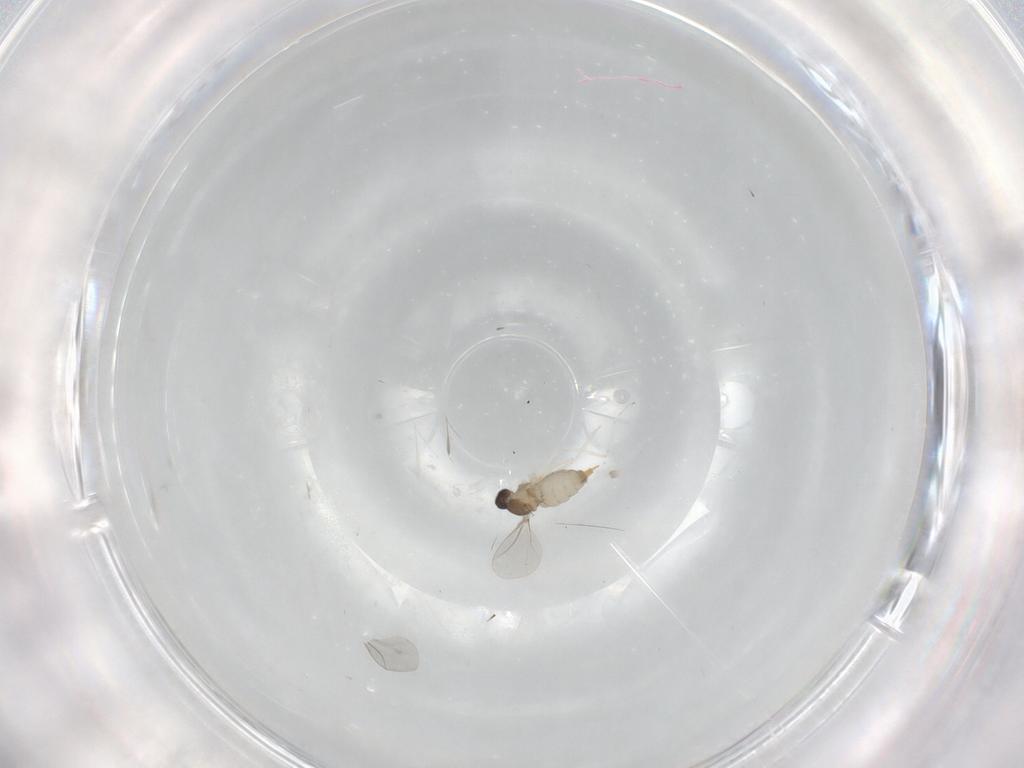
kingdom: Animalia
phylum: Arthropoda
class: Insecta
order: Diptera
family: Cecidomyiidae
